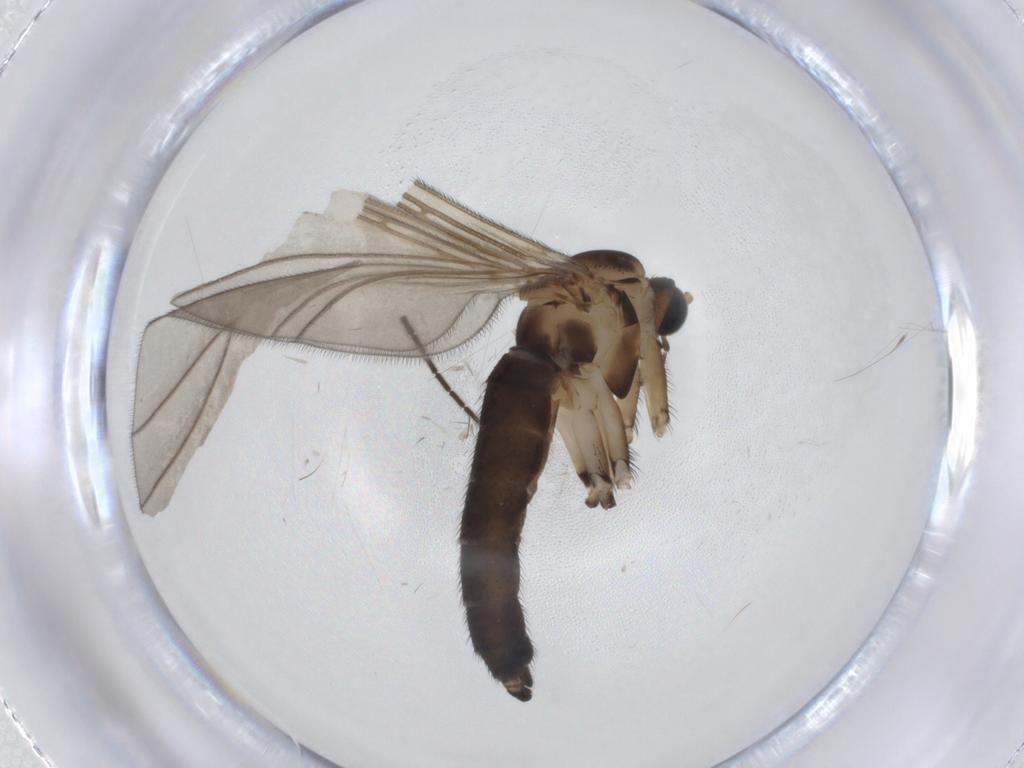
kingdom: Animalia
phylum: Arthropoda
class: Insecta
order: Diptera
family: Sciaridae
